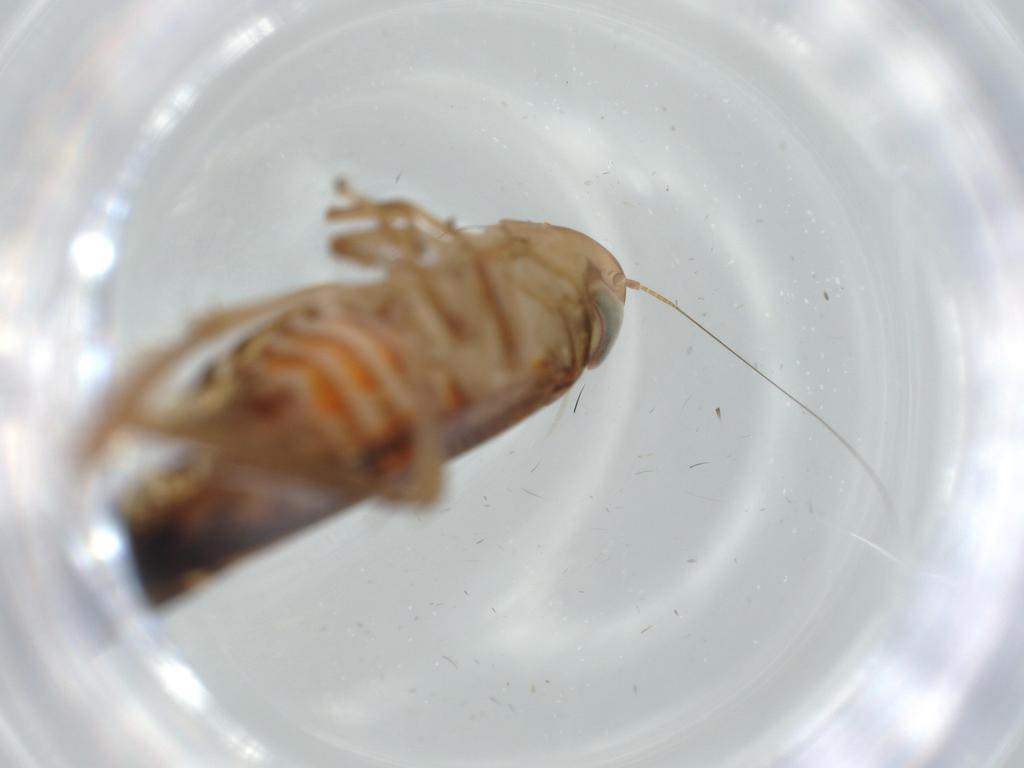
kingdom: Animalia
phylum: Arthropoda
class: Insecta
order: Hemiptera
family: Cicadellidae
